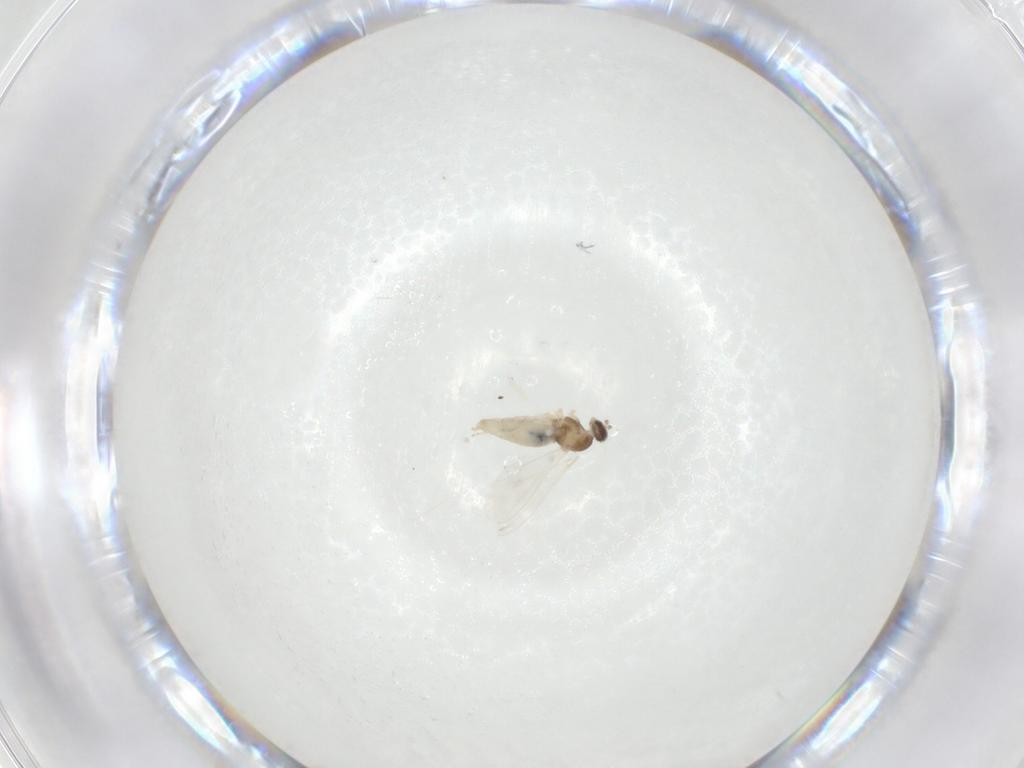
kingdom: Animalia
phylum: Arthropoda
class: Insecta
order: Diptera
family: Cecidomyiidae
